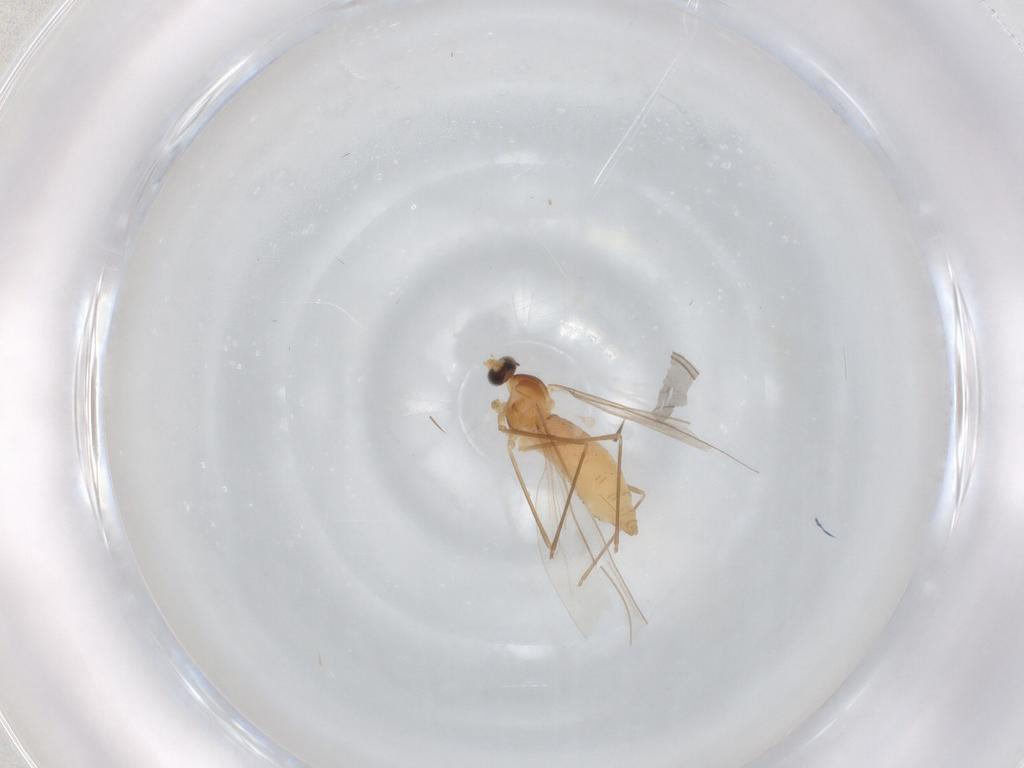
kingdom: Animalia
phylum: Arthropoda
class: Insecta
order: Diptera
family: Cecidomyiidae
